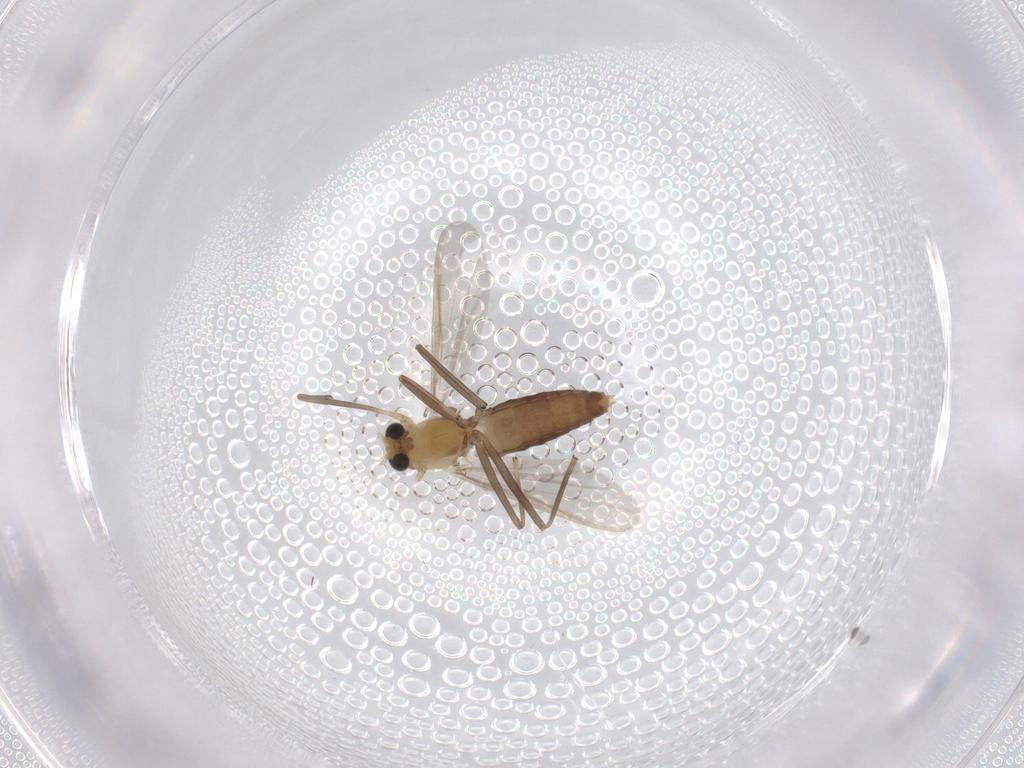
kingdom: Animalia
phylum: Arthropoda
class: Insecta
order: Diptera
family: Chironomidae
